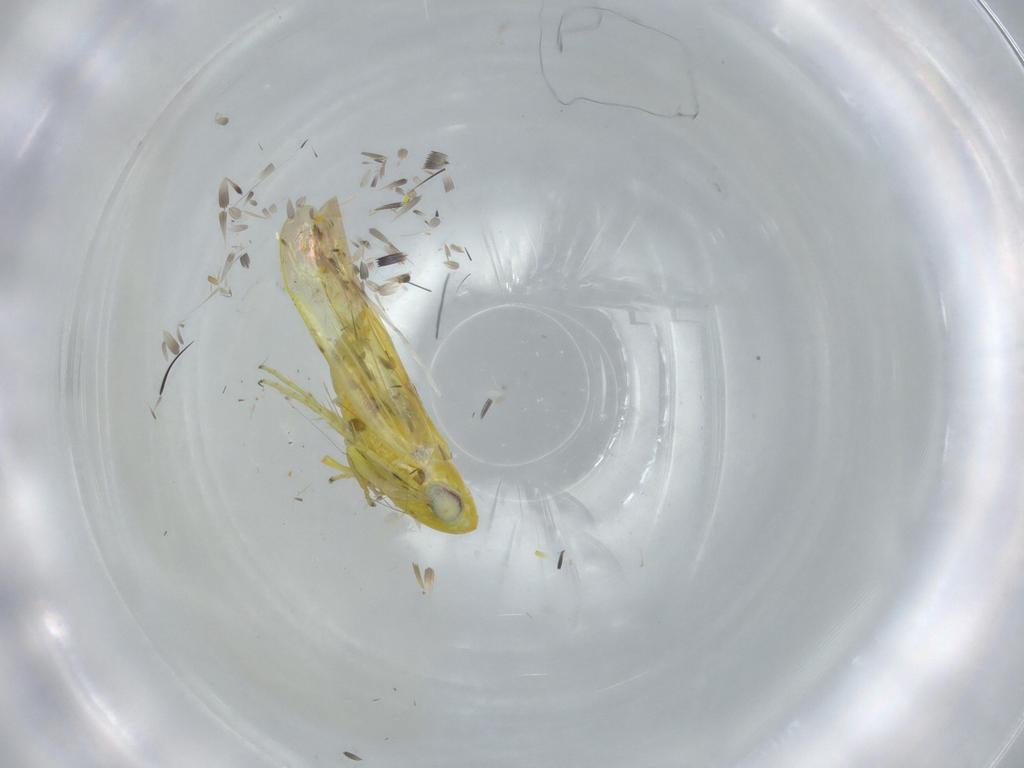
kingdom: Animalia
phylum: Arthropoda
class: Insecta
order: Hemiptera
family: Cicadellidae
